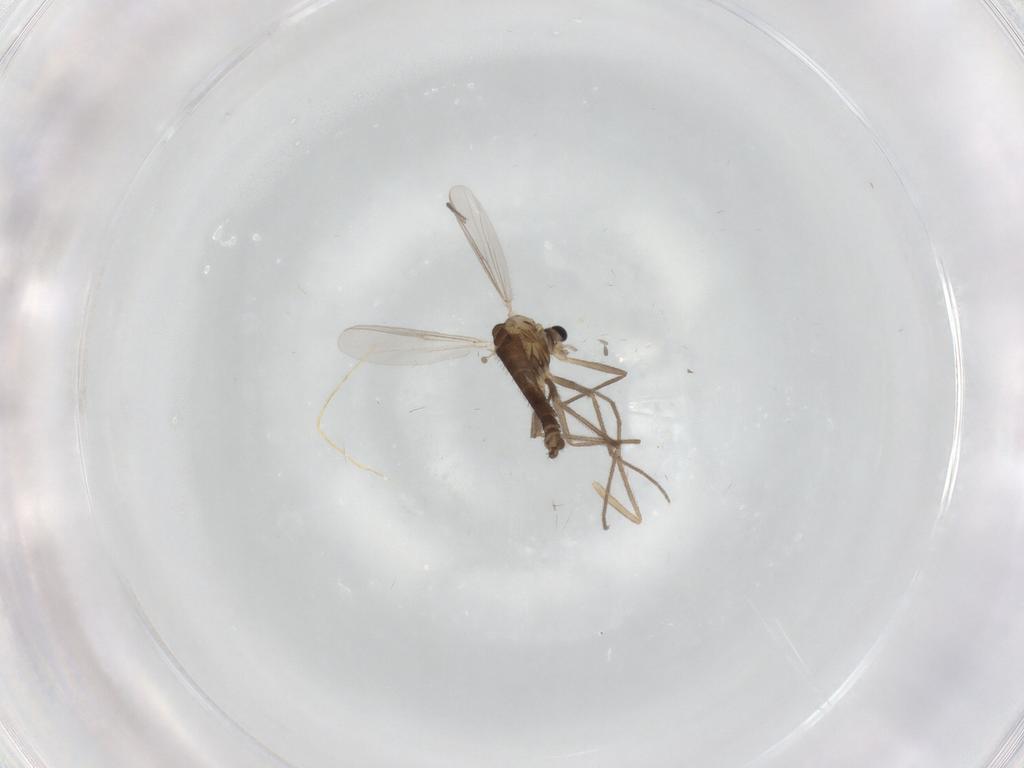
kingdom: Animalia
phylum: Arthropoda
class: Insecta
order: Diptera
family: Chironomidae
